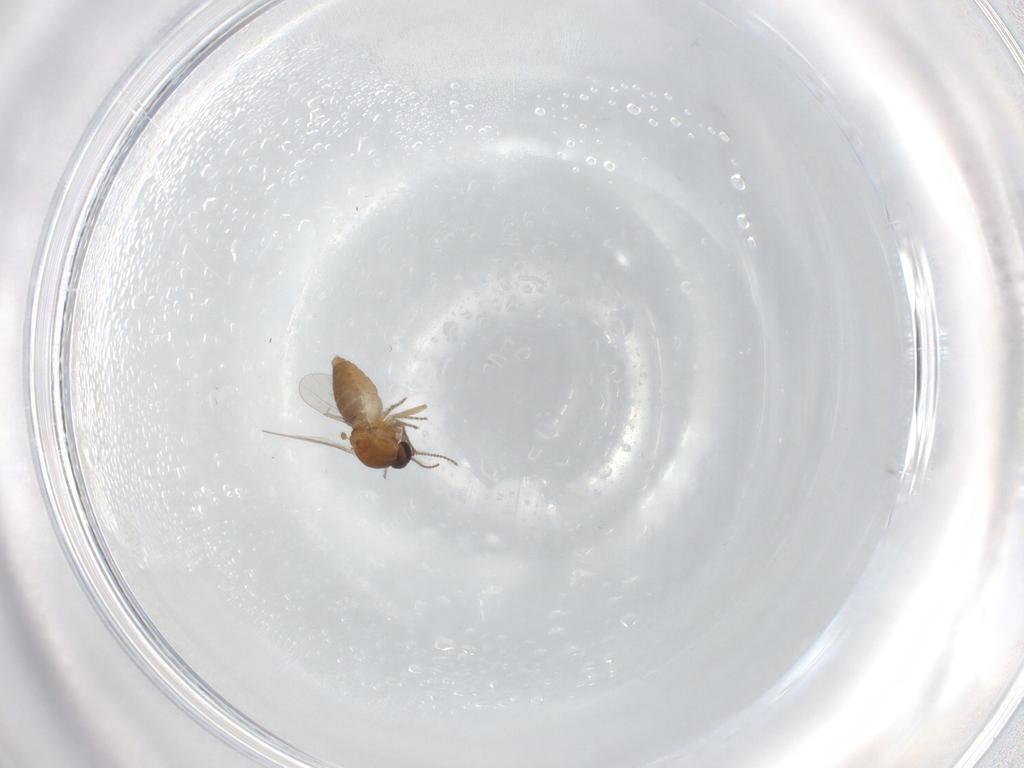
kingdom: Animalia
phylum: Arthropoda
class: Insecta
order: Diptera
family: Ceratopogonidae
